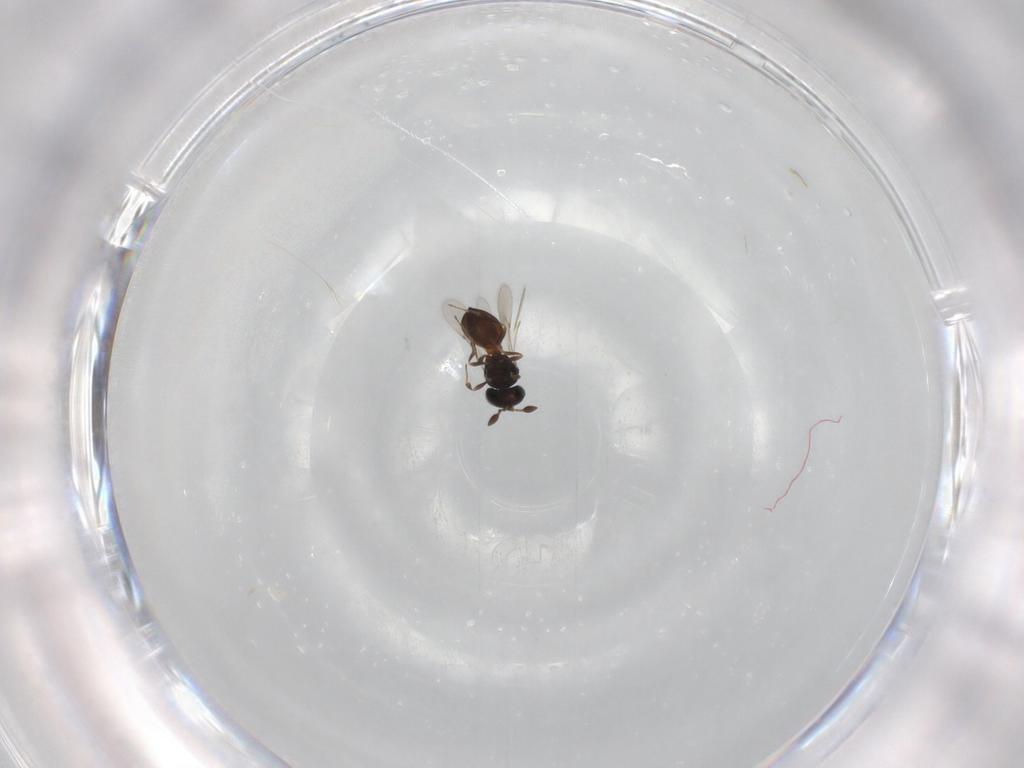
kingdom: Animalia
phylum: Arthropoda
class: Insecta
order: Hymenoptera
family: Scelionidae
